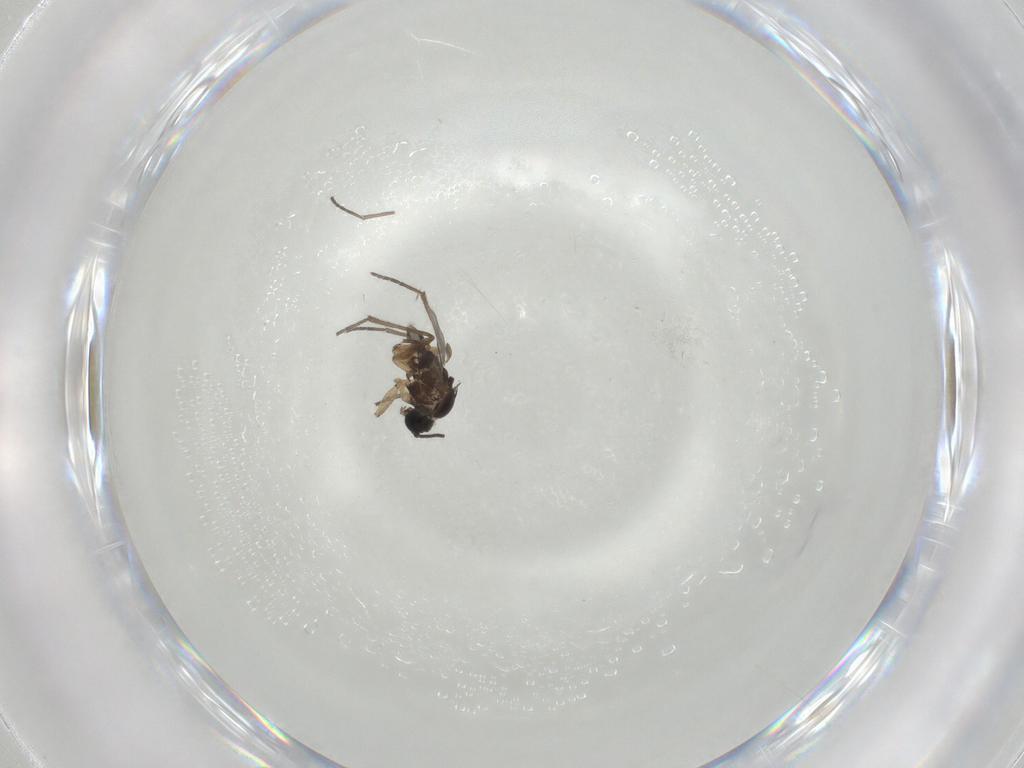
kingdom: Animalia
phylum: Arthropoda
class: Insecta
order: Diptera
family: Sciaridae
